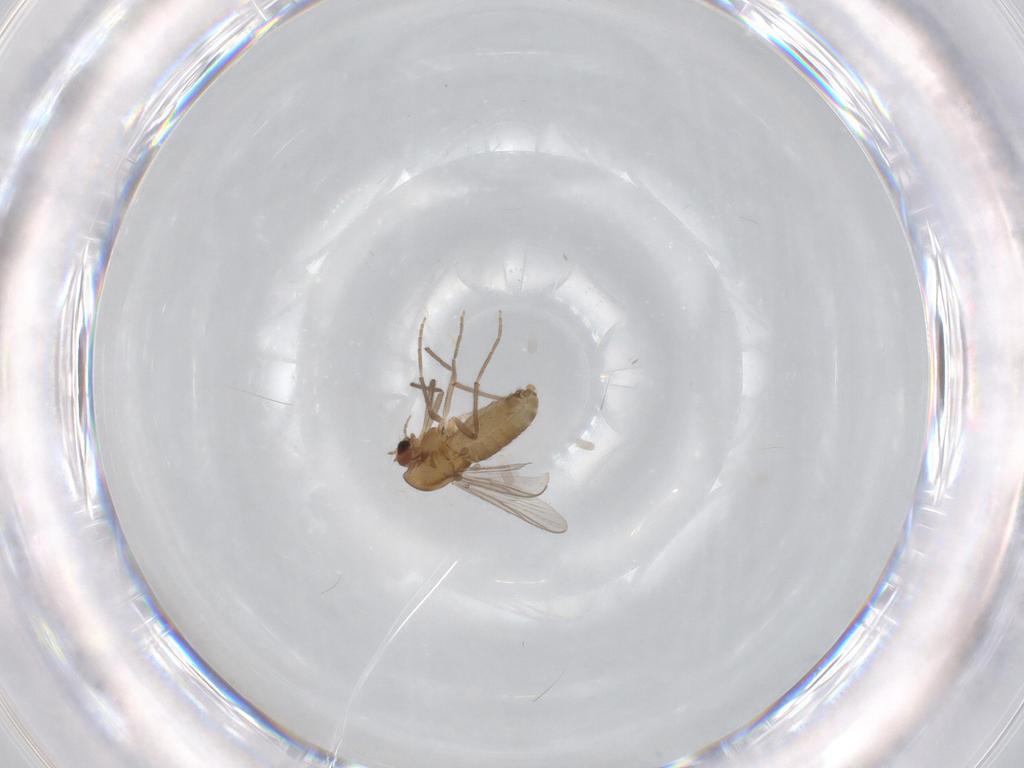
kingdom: Animalia
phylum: Arthropoda
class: Insecta
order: Diptera
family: Chironomidae
